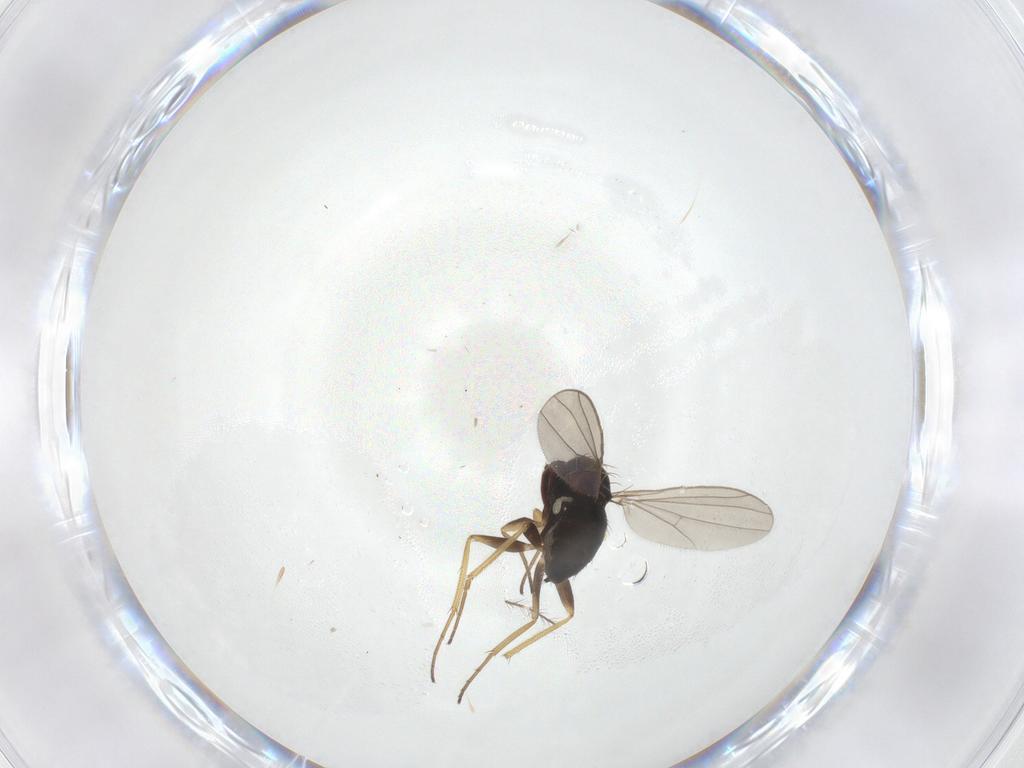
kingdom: Animalia
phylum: Arthropoda
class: Insecta
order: Diptera
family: Dolichopodidae
